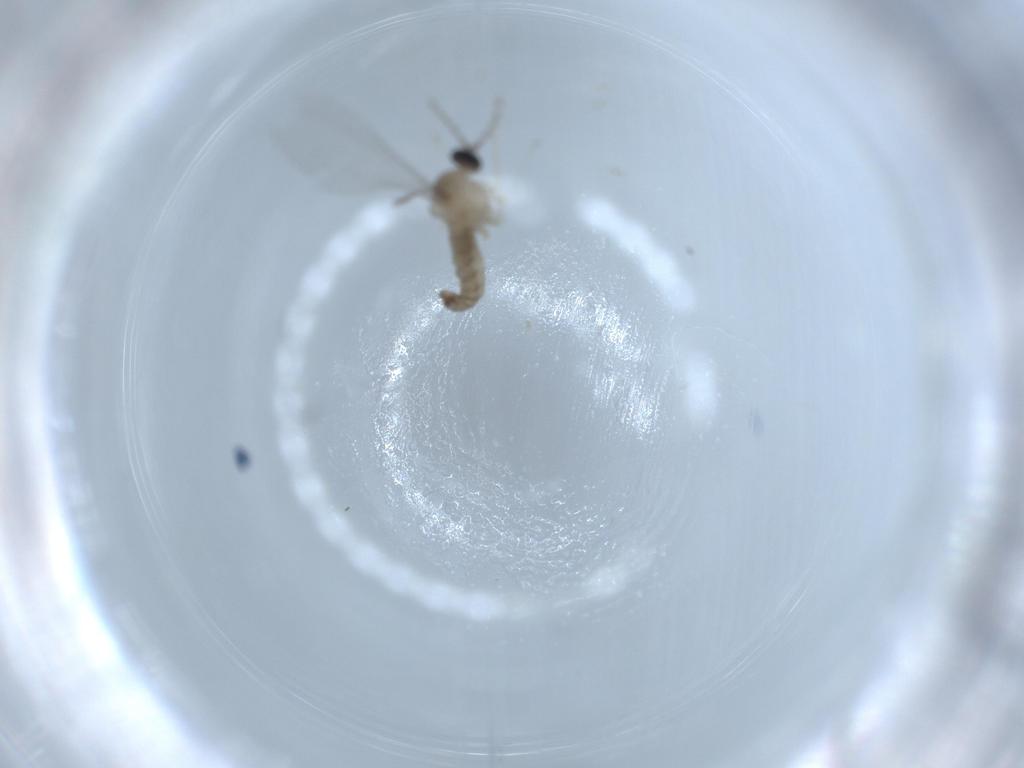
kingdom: Animalia
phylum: Arthropoda
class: Insecta
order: Diptera
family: Cecidomyiidae
